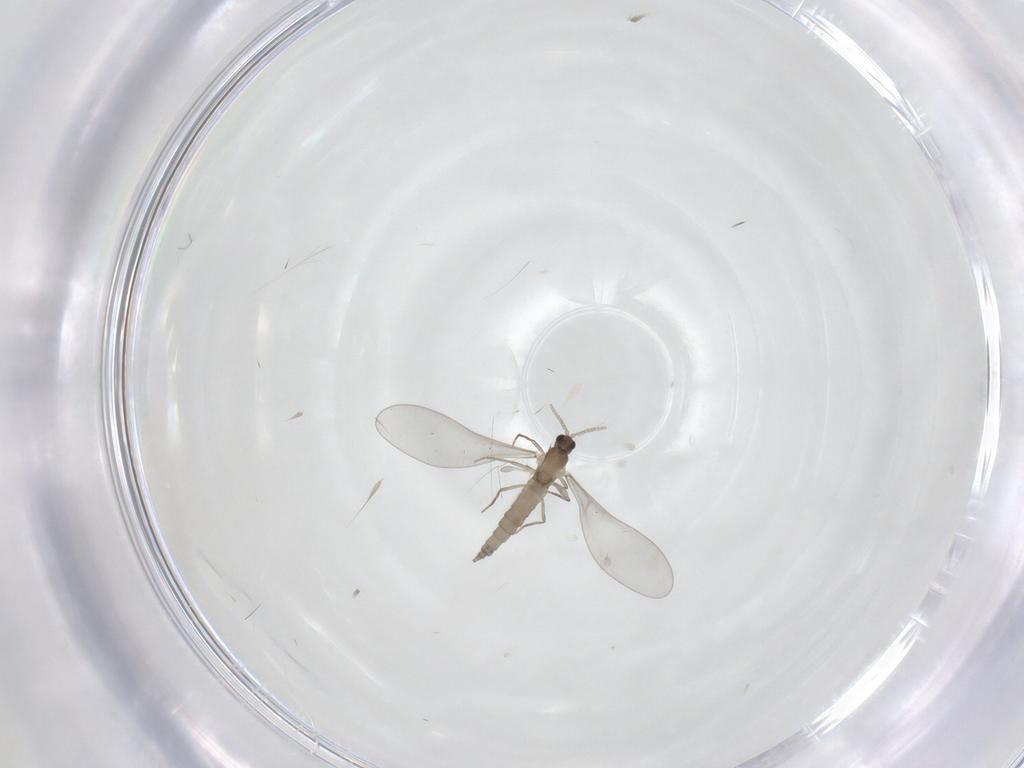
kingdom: Animalia
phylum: Arthropoda
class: Insecta
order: Diptera
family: Cecidomyiidae
